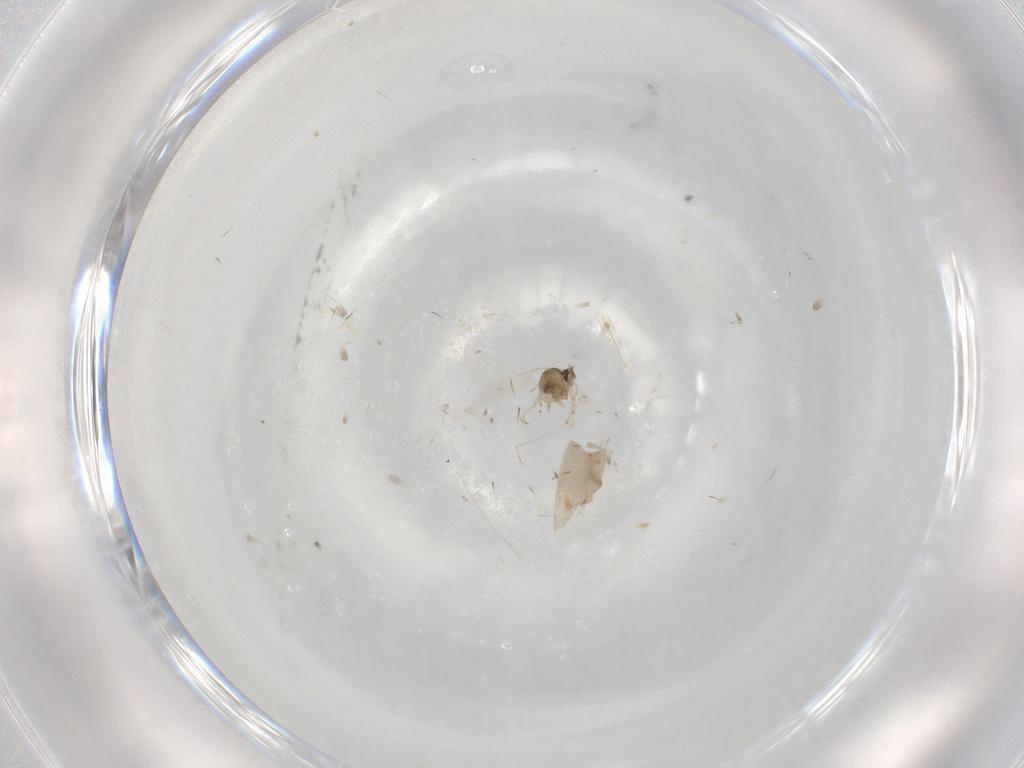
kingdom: Animalia
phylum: Arthropoda
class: Insecta
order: Diptera
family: Cecidomyiidae
